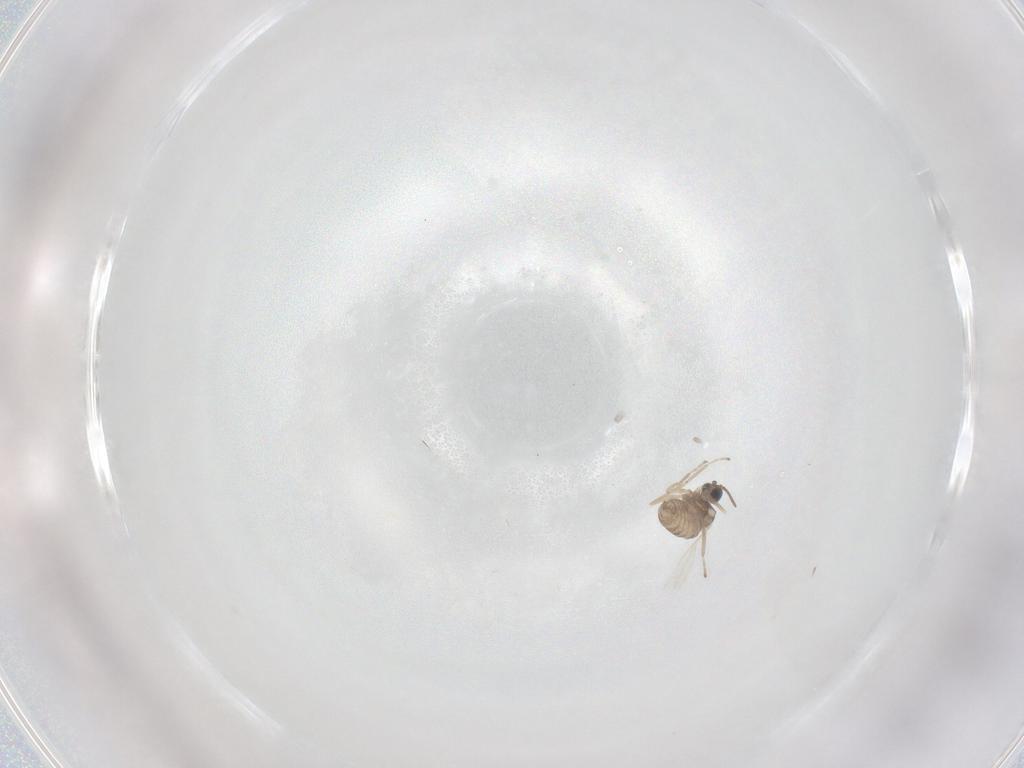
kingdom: Animalia
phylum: Arthropoda
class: Insecta
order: Diptera
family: Cecidomyiidae
